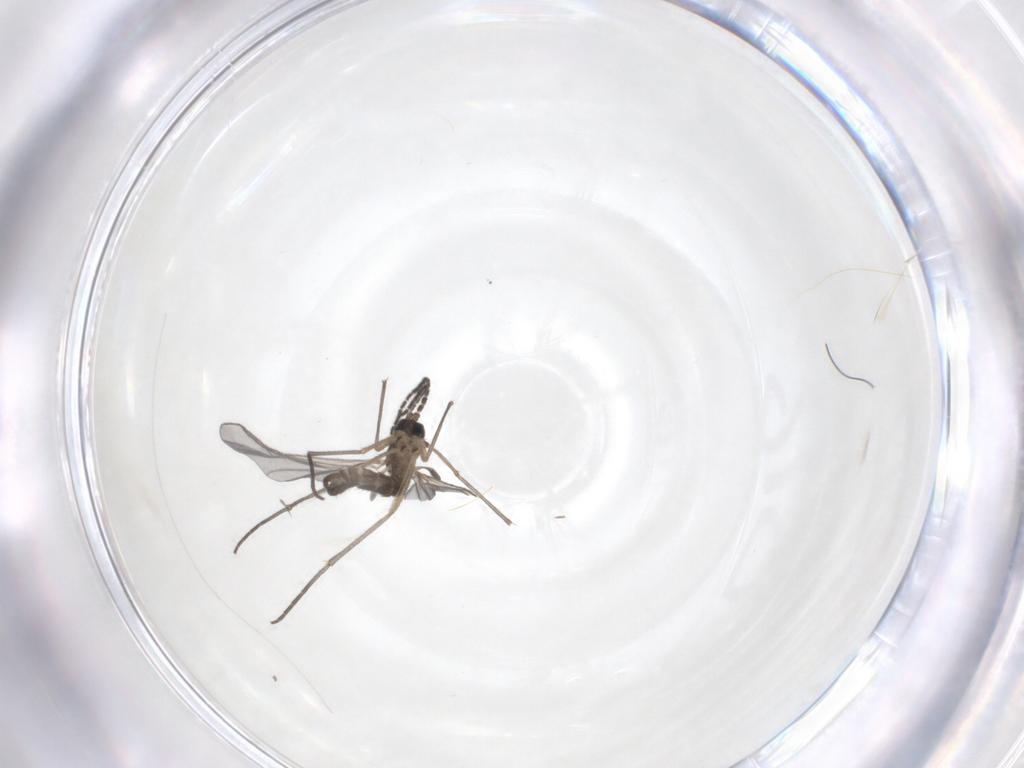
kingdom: Animalia
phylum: Arthropoda
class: Insecta
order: Diptera
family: Sciaridae
